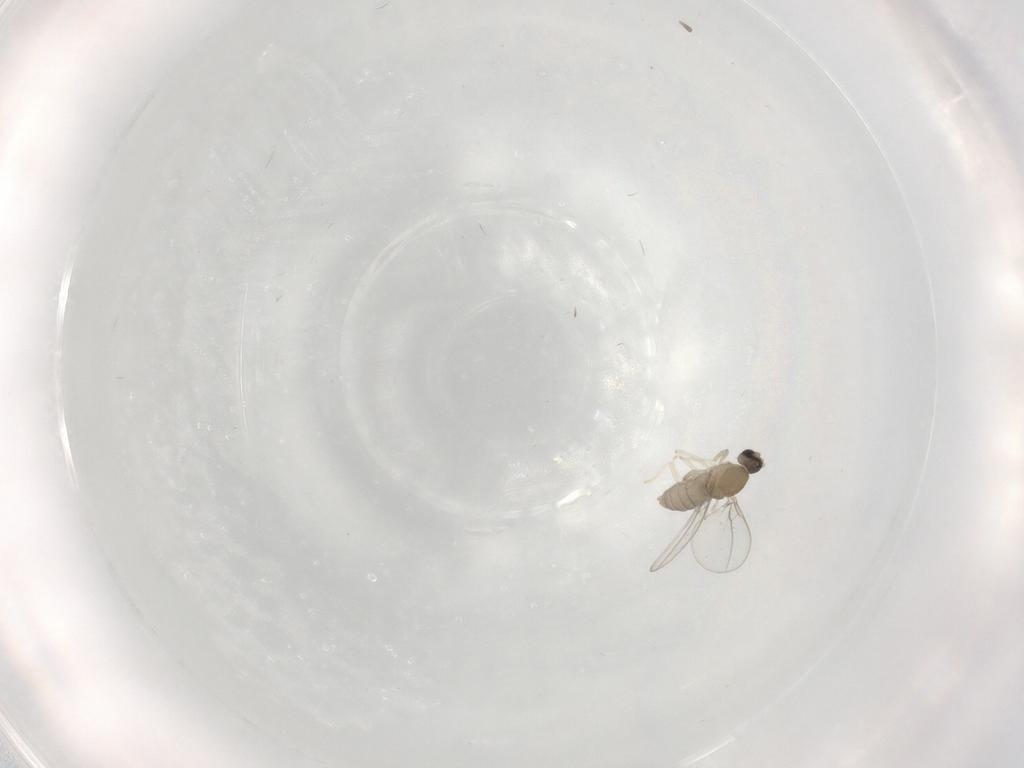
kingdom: Animalia
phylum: Arthropoda
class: Insecta
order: Diptera
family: Cecidomyiidae
